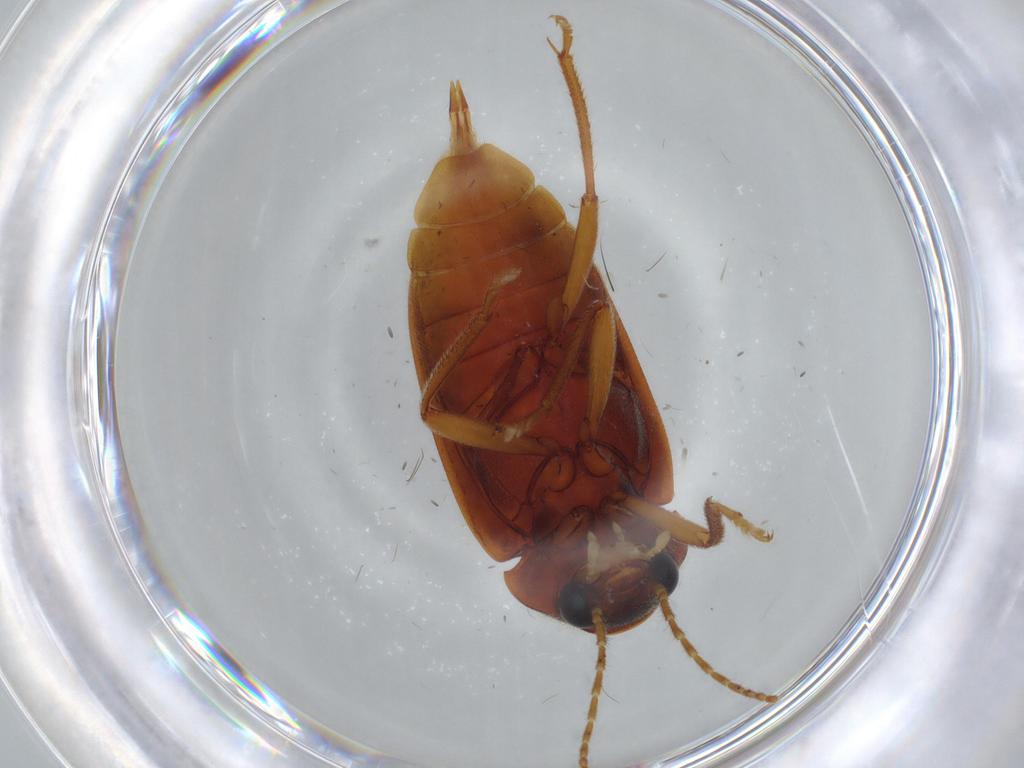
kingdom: Animalia
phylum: Arthropoda
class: Insecta
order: Coleoptera
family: Ptilodactylidae
